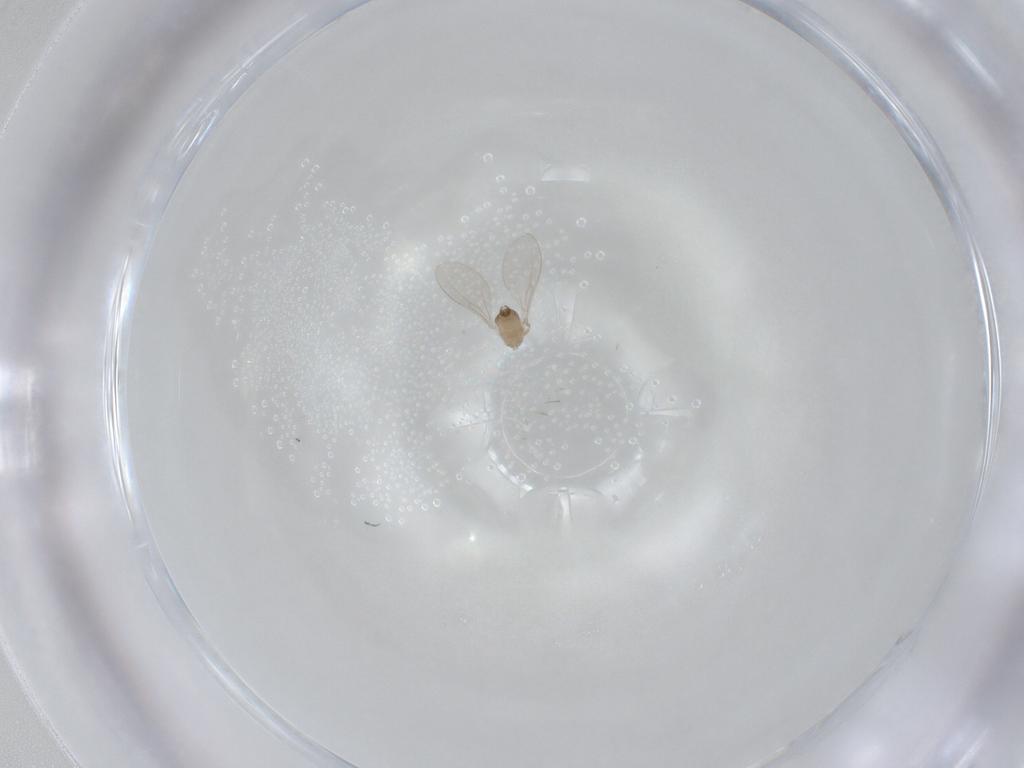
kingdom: Animalia
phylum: Arthropoda
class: Insecta
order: Diptera
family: Cecidomyiidae
